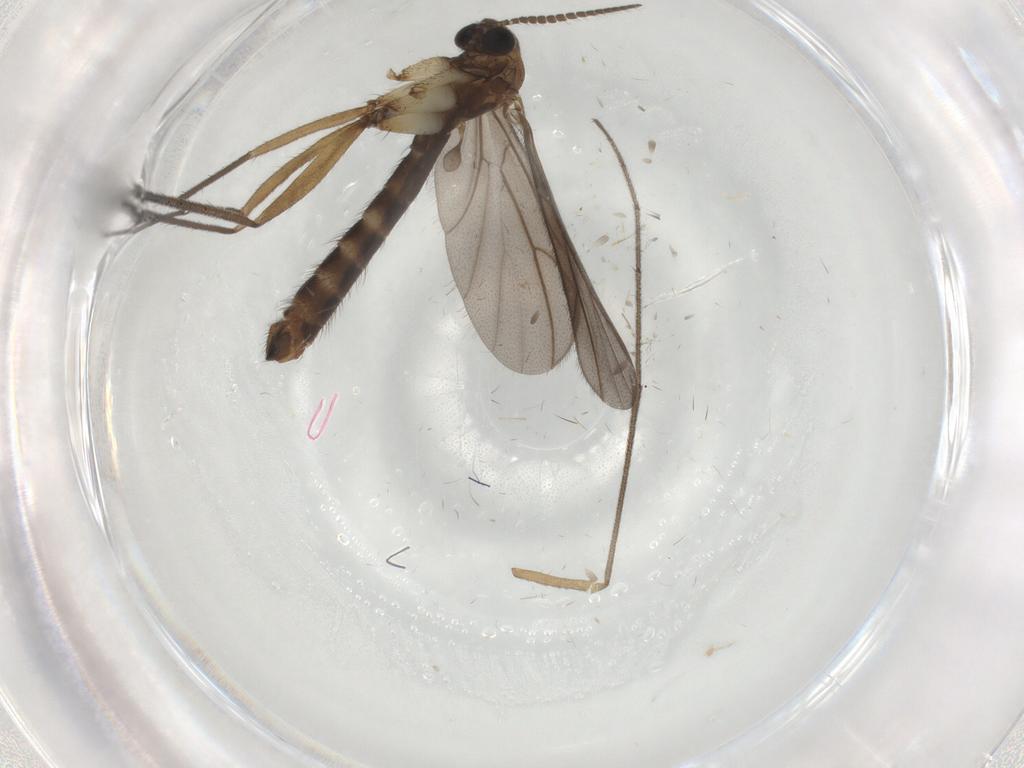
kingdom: Animalia
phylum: Arthropoda
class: Insecta
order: Diptera
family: Ditomyiidae
